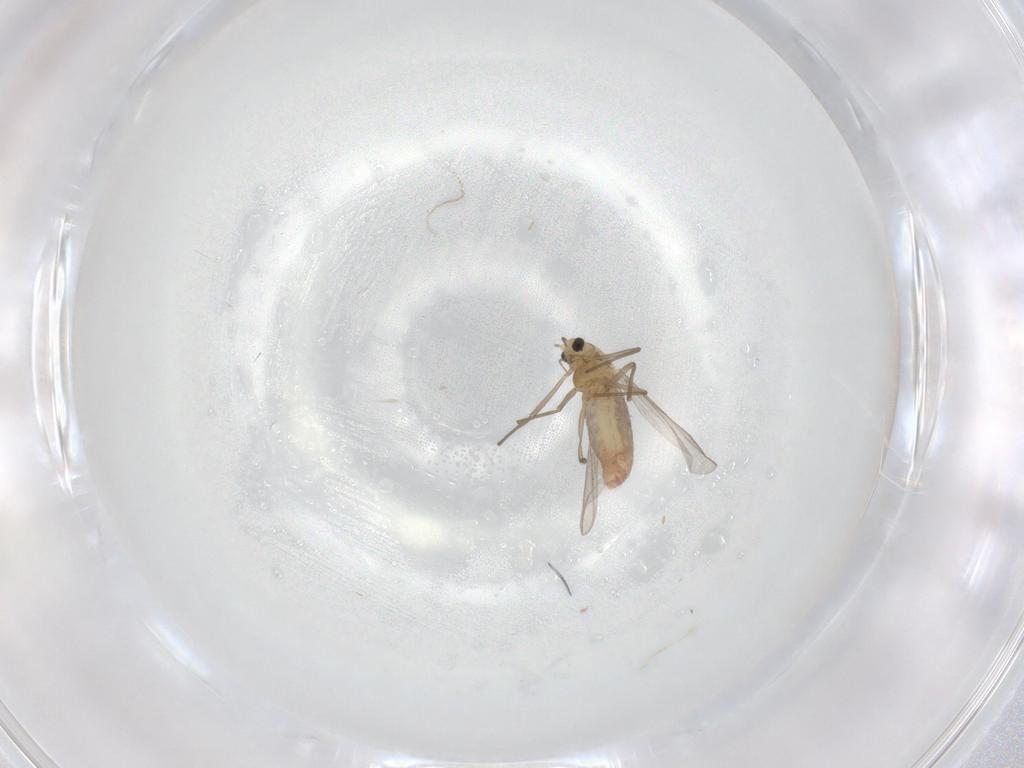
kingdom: Animalia
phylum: Arthropoda
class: Insecta
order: Diptera
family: Chironomidae
